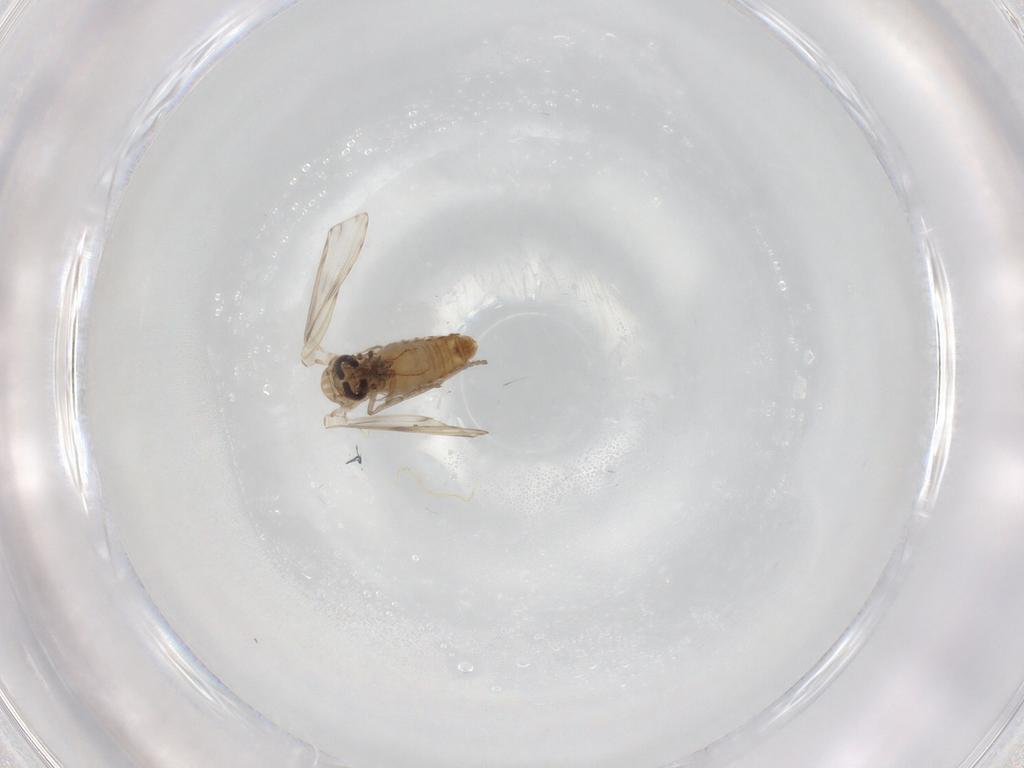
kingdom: Animalia
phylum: Arthropoda
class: Insecta
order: Diptera
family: Psychodidae
